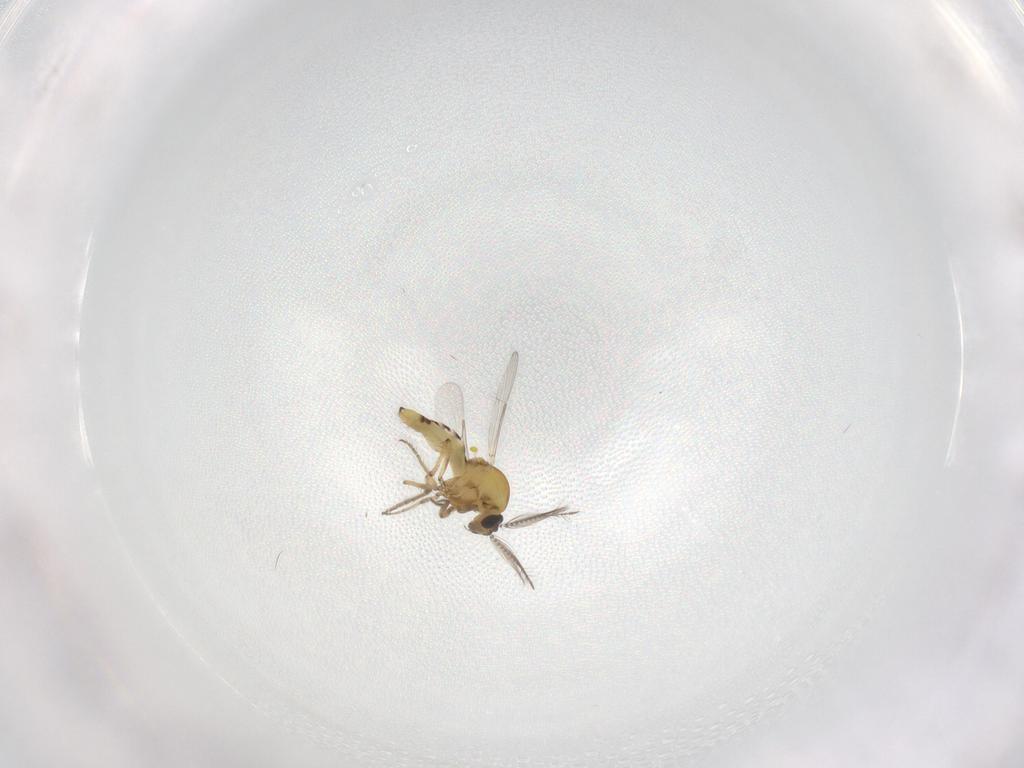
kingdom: Animalia
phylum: Arthropoda
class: Insecta
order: Diptera
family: Ceratopogonidae
